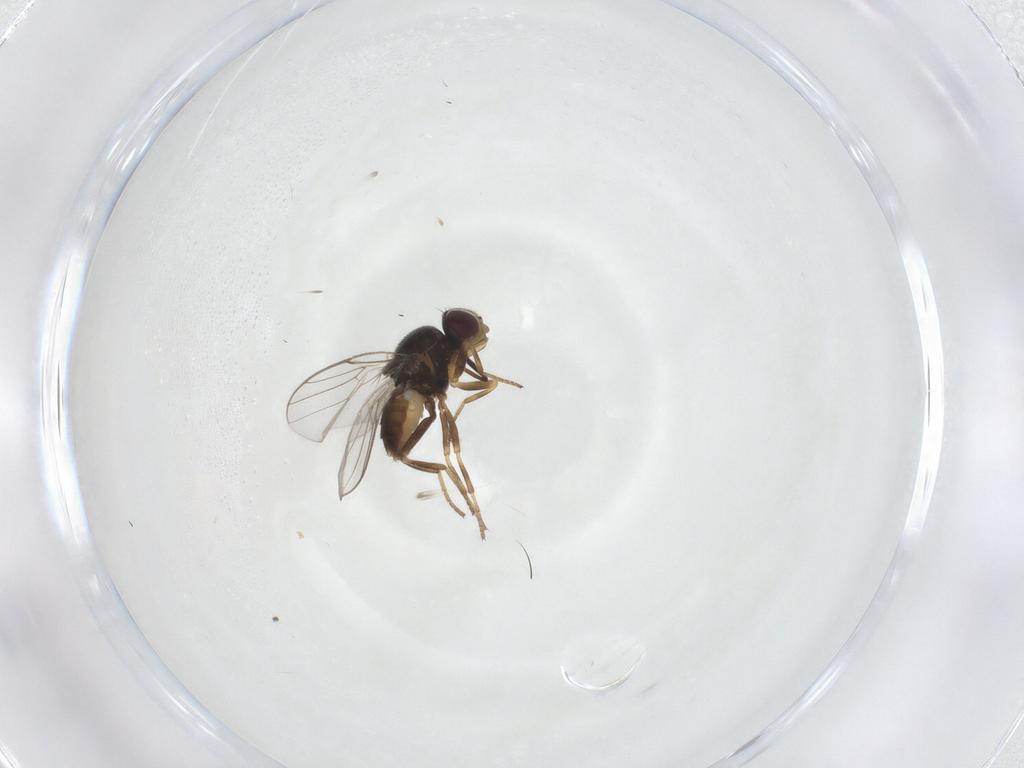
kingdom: Animalia
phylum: Arthropoda
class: Insecta
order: Diptera
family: Chloropidae
